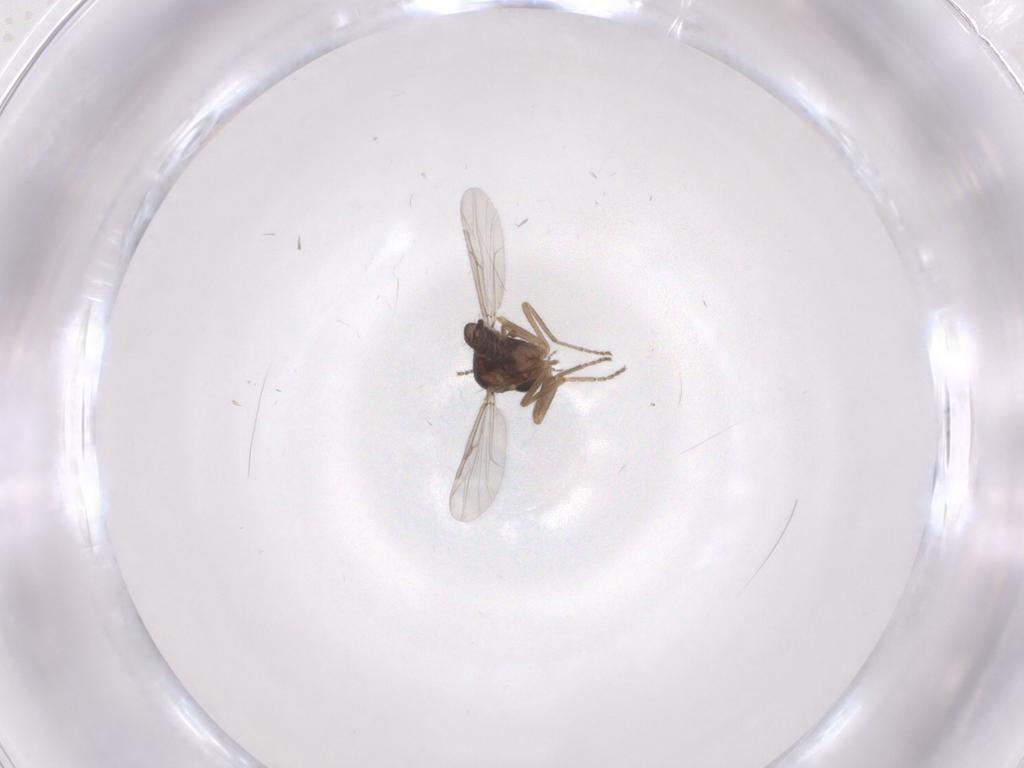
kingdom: Animalia
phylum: Arthropoda
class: Insecta
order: Diptera
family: Ceratopogonidae
